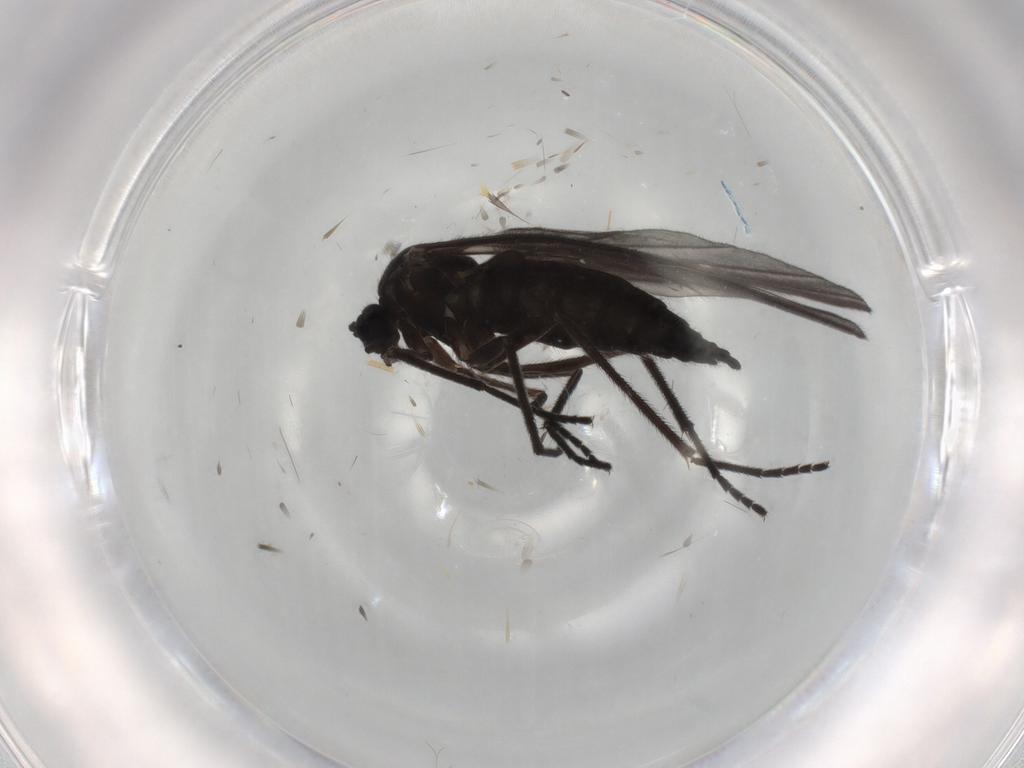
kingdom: Animalia
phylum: Arthropoda
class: Insecta
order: Diptera
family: Sciaridae
